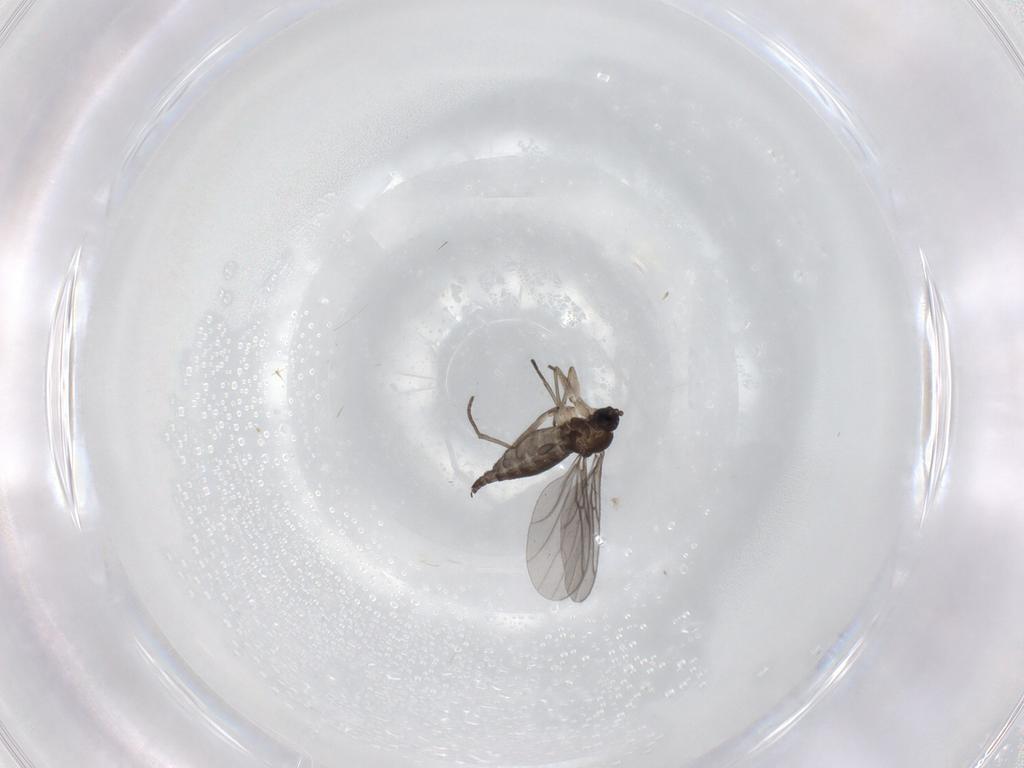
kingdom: Animalia
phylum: Arthropoda
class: Insecta
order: Diptera
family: Sciaridae
